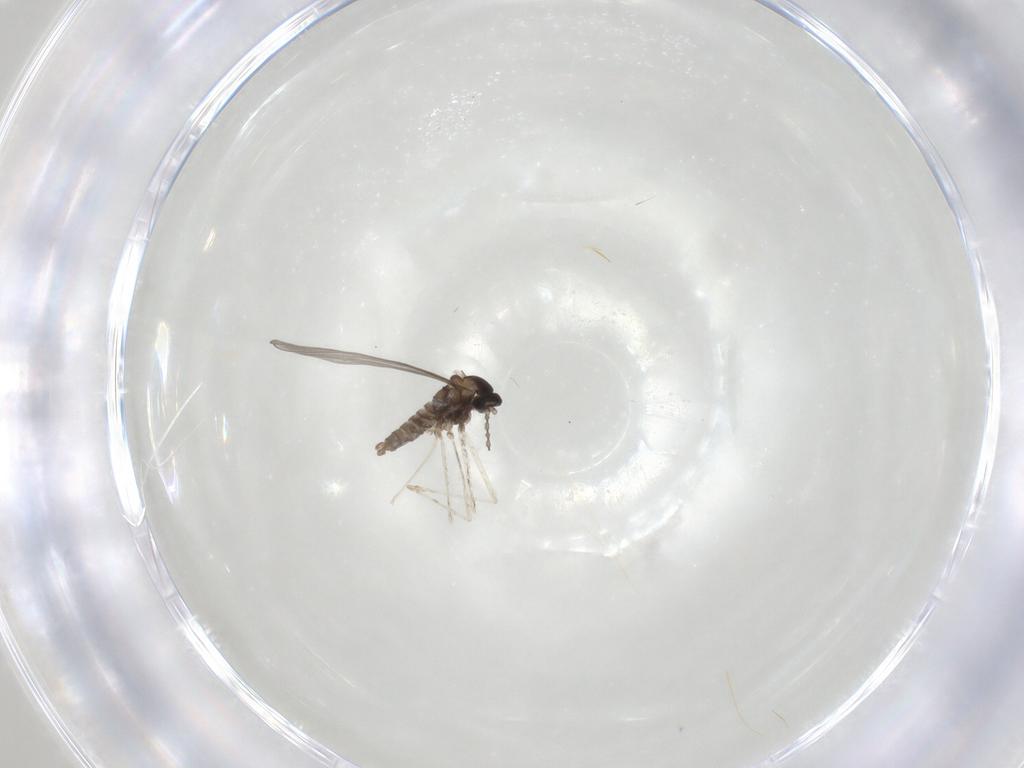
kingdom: Animalia
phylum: Arthropoda
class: Insecta
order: Diptera
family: Cecidomyiidae
